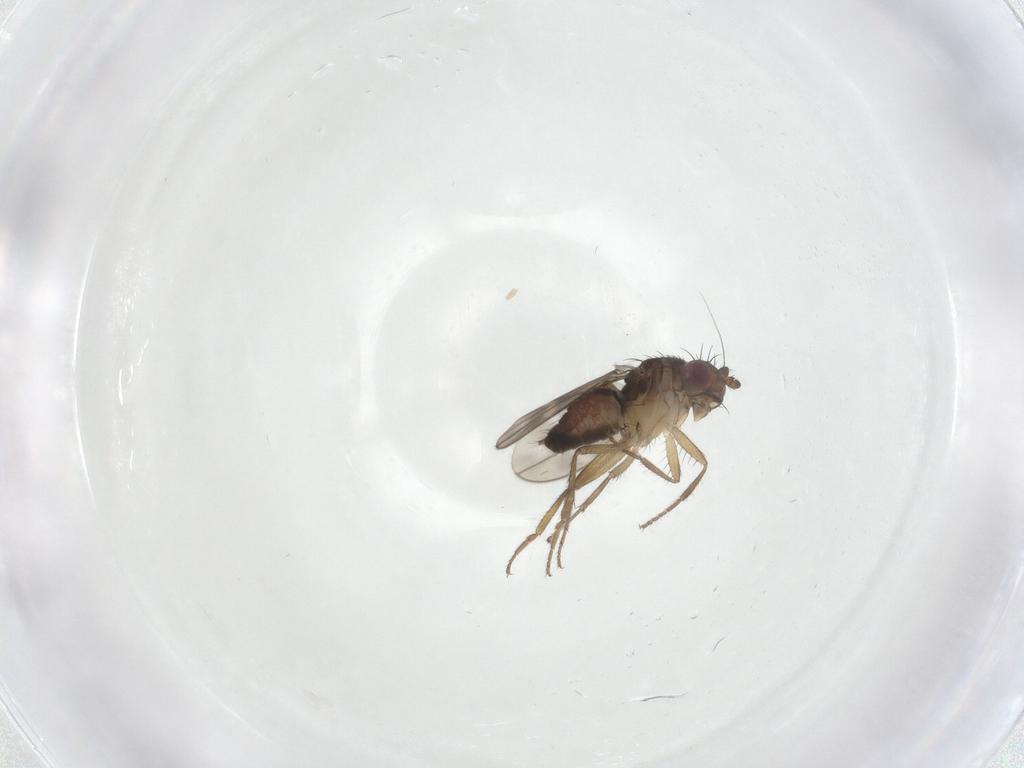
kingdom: Animalia
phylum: Arthropoda
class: Insecta
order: Diptera
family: Sphaeroceridae
